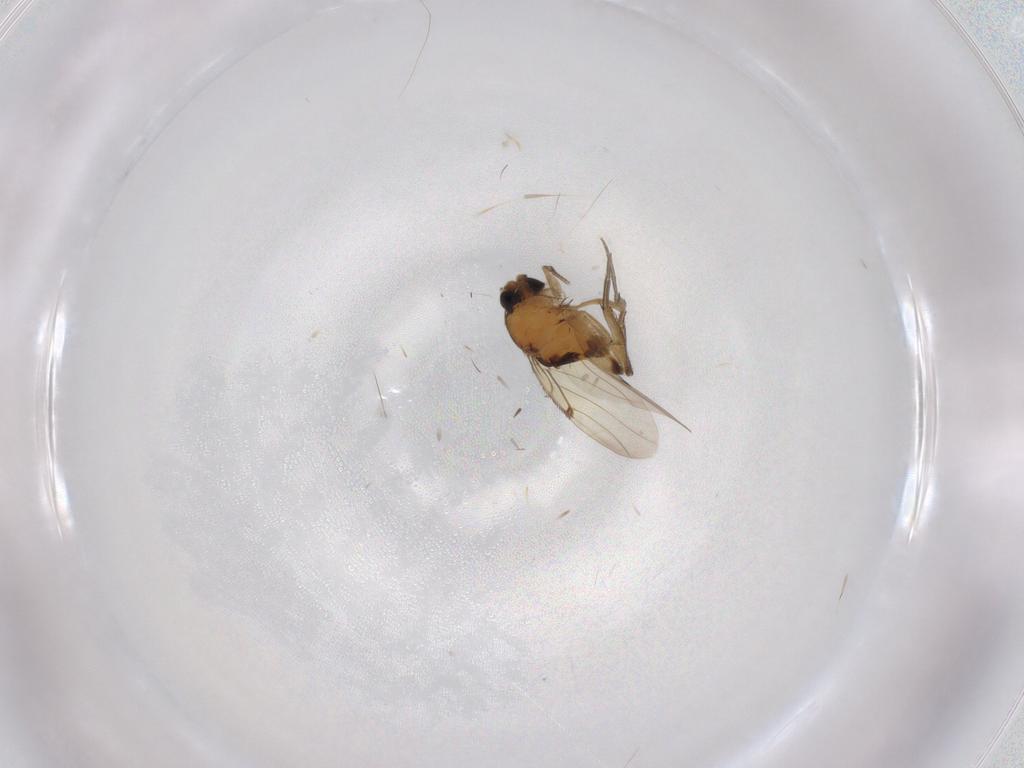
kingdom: Animalia
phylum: Arthropoda
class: Insecta
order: Diptera
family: Phoridae
